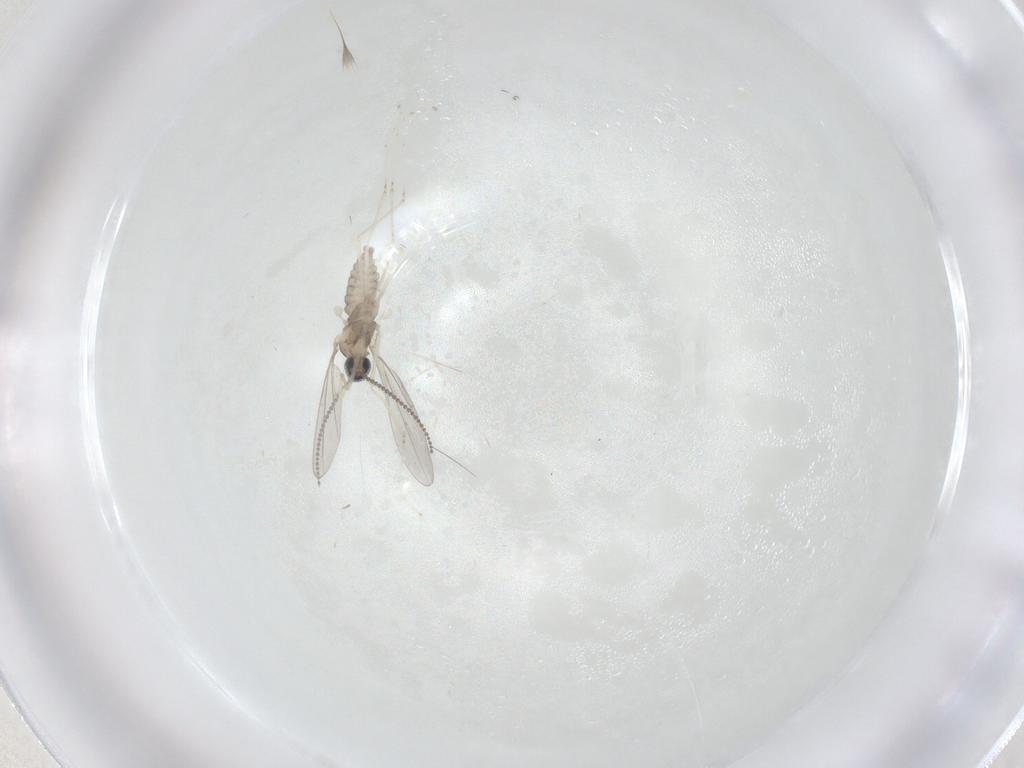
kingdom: Animalia
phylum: Arthropoda
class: Insecta
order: Diptera
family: Cecidomyiidae
